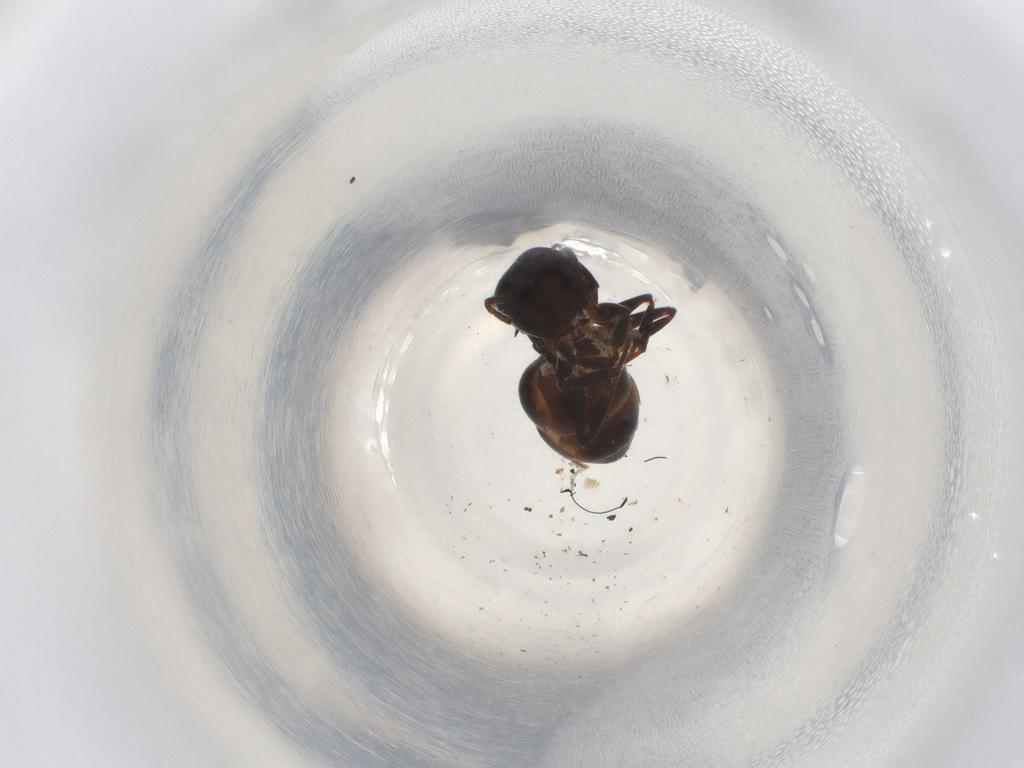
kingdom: Animalia
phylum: Arthropoda
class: Insecta
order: Hymenoptera
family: Formicidae
